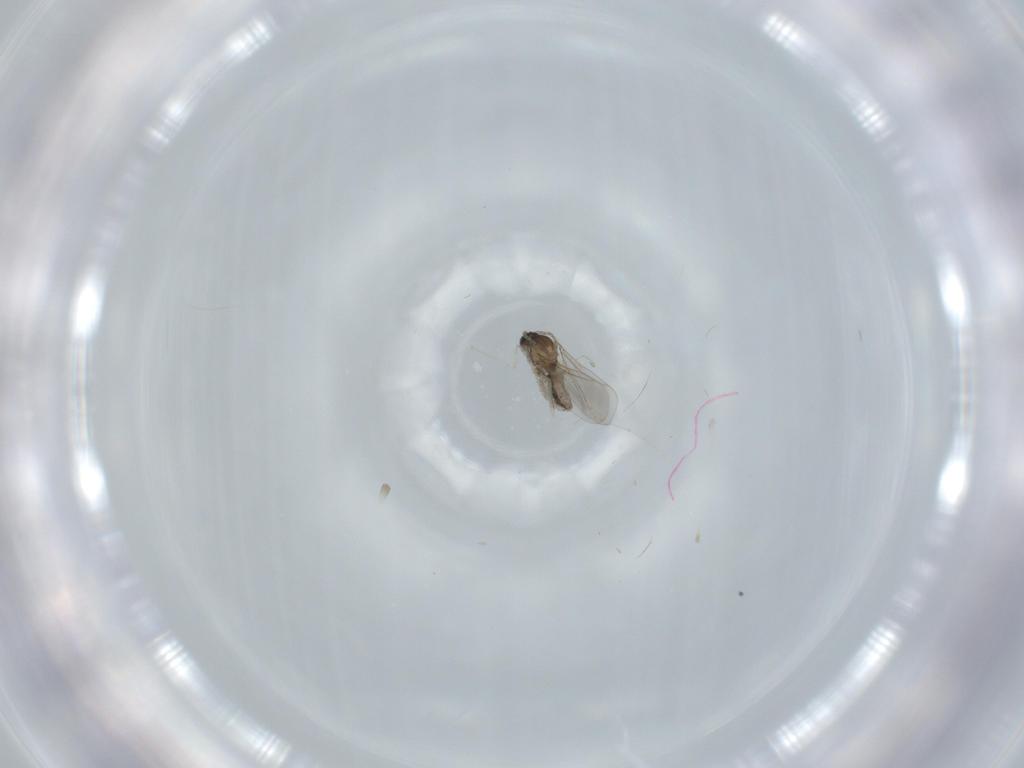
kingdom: Animalia
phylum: Arthropoda
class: Insecta
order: Diptera
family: Cecidomyiidae
